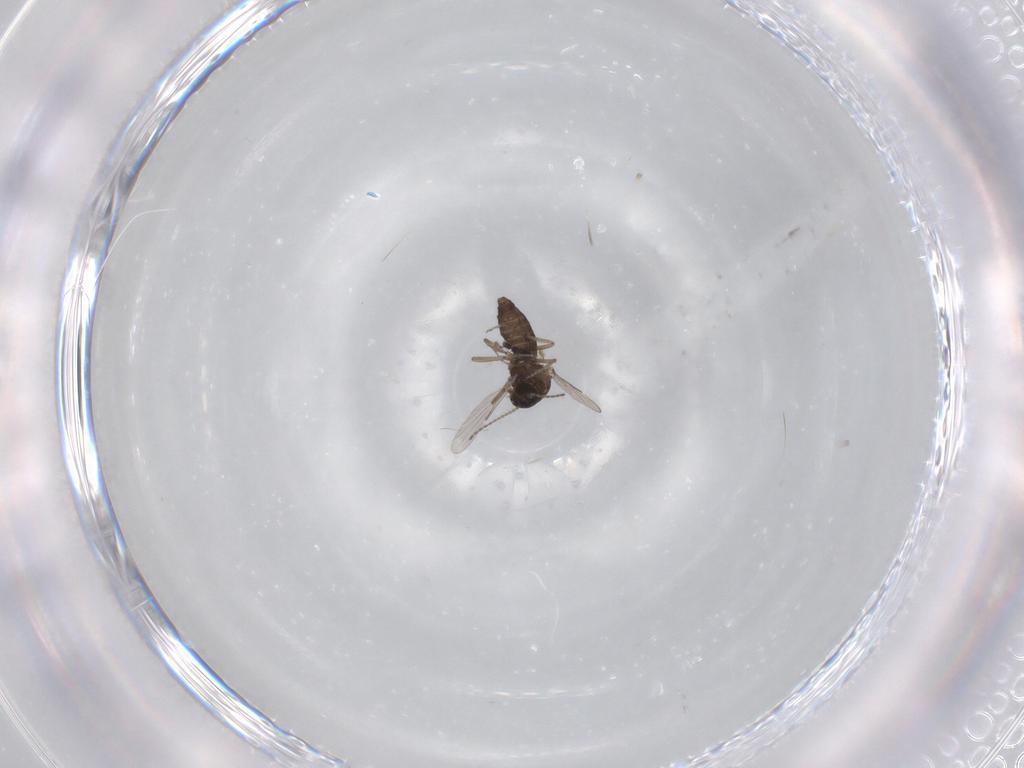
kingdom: Animalia
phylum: Arthropoda
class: Insecta
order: Diptera
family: Sciaridae
